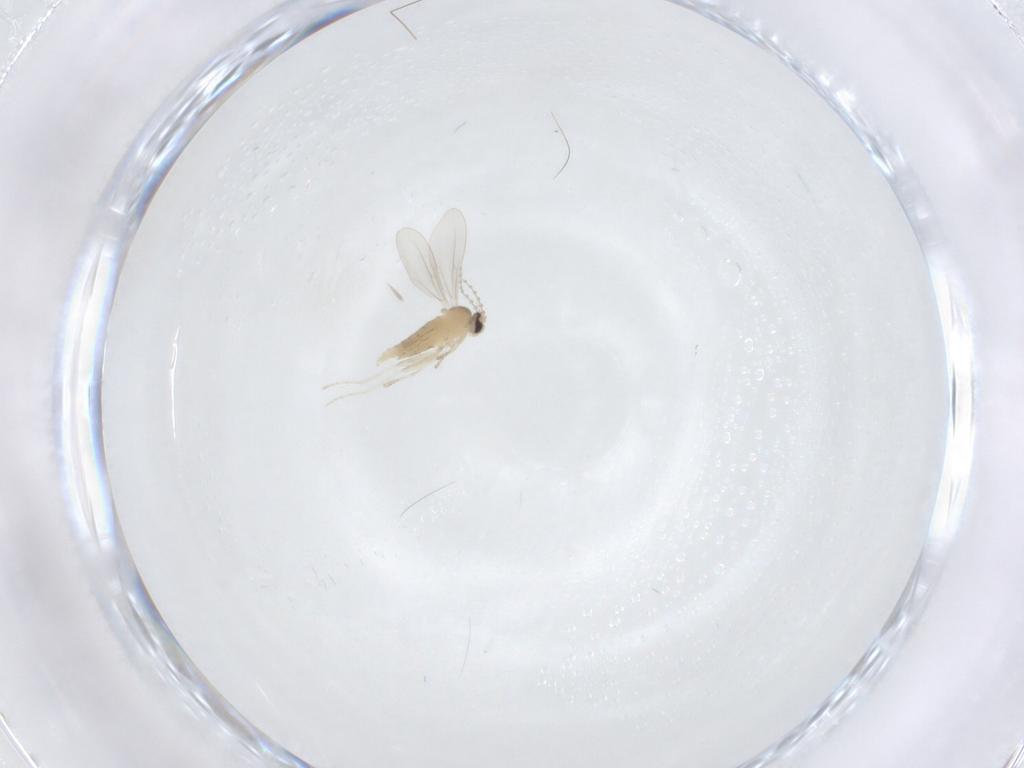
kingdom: Animalia
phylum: Arthropoda
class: Insecta
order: Diptera
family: Cecidomyiidae
